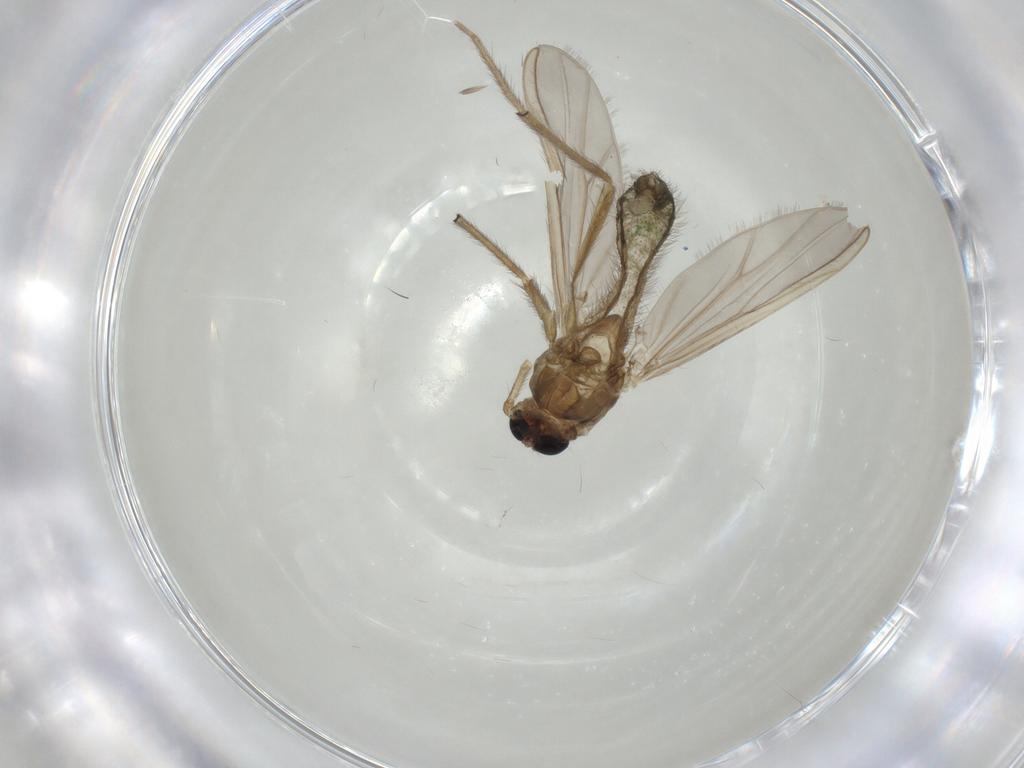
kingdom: Animalia
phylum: Arthropoda
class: Insecta
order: Diptera
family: Chironomidae
